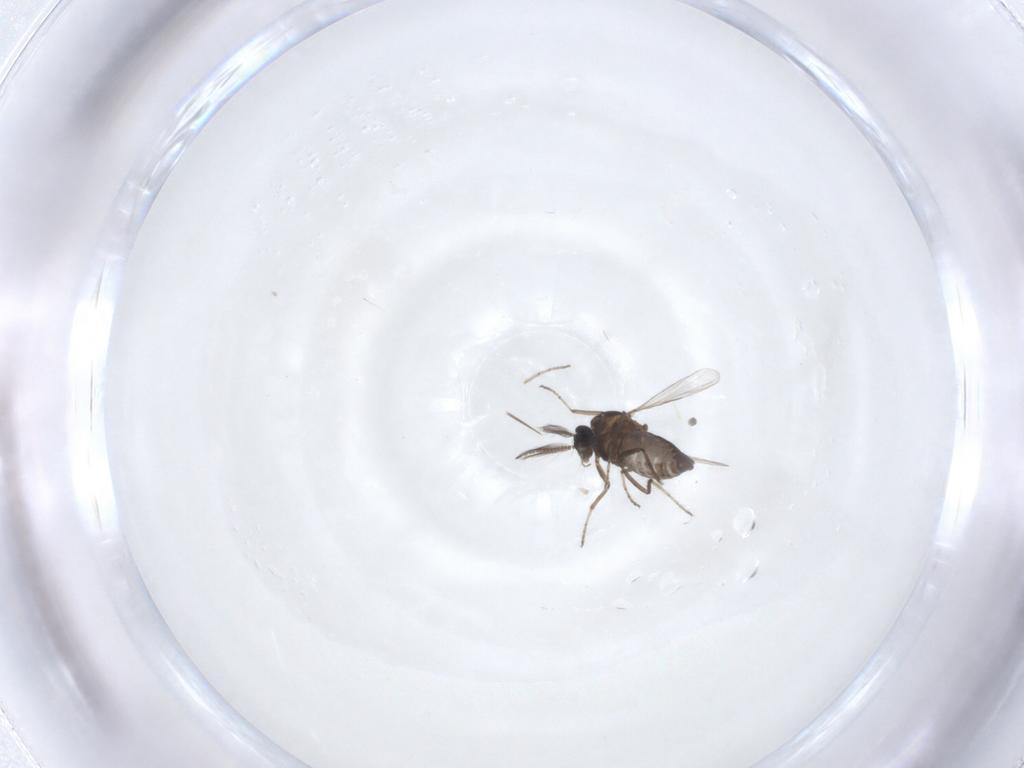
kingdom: Animalia
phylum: Arthropoda
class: Insecta
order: Diptera
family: Ceratopogonidae
